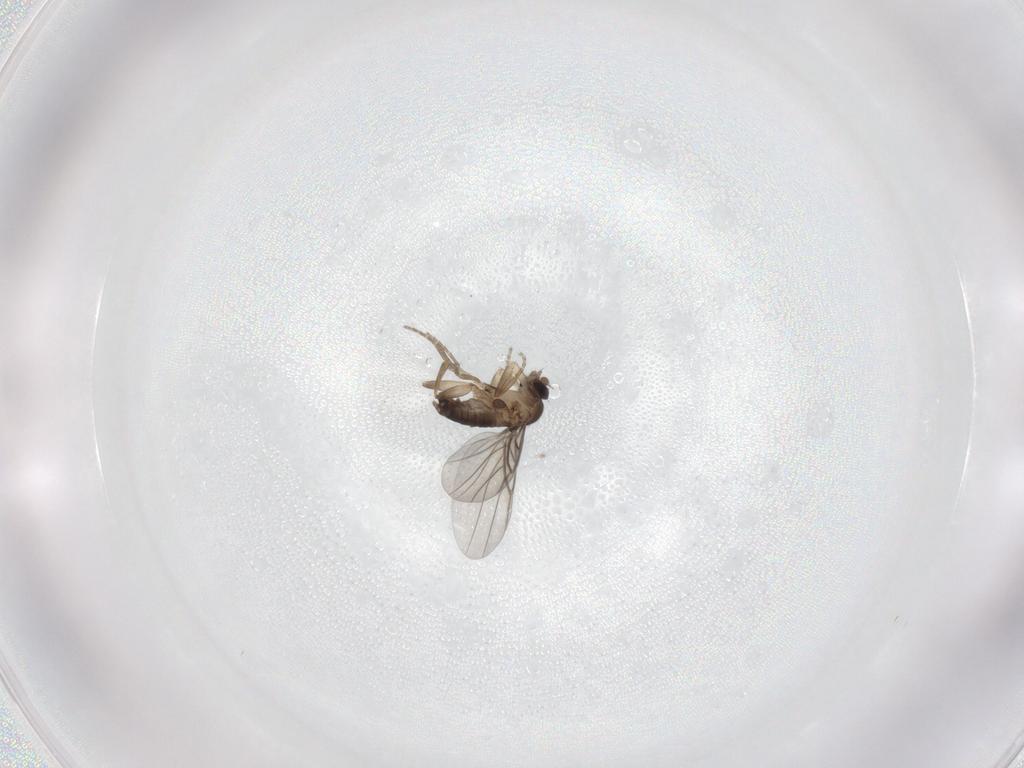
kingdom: Animalia
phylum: Arthropoda
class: Insecta
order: Diptera
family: Phoridae
